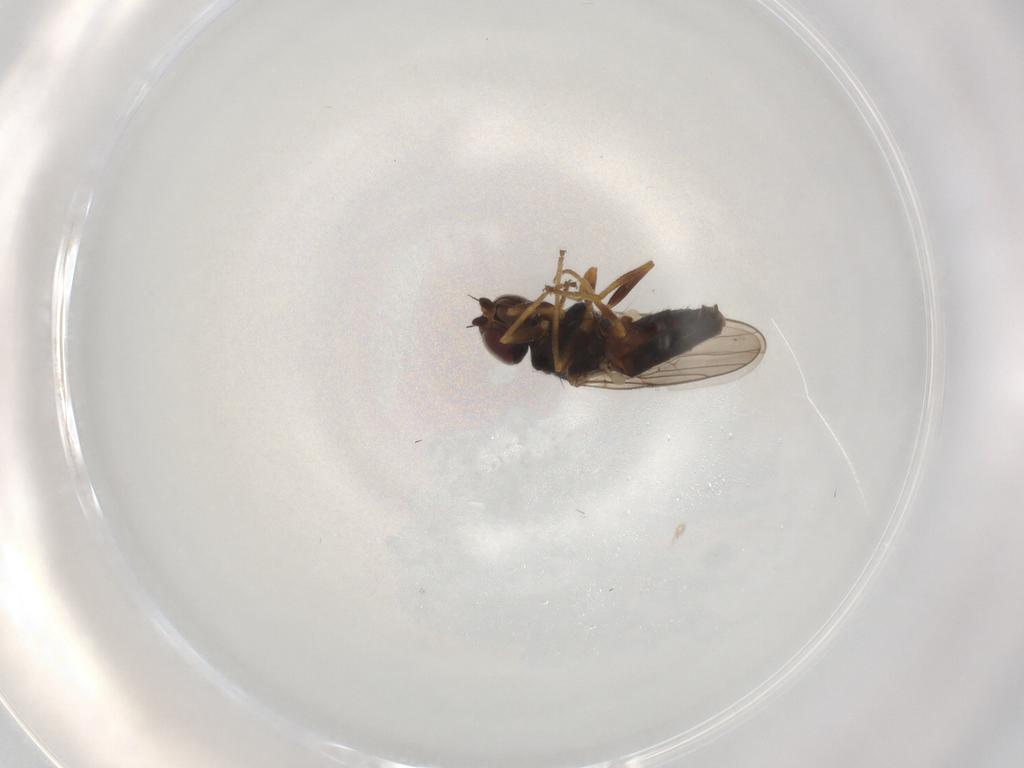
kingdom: Animalia
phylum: Arthropoda
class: Insecta
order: Diptera
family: Chloropidae
